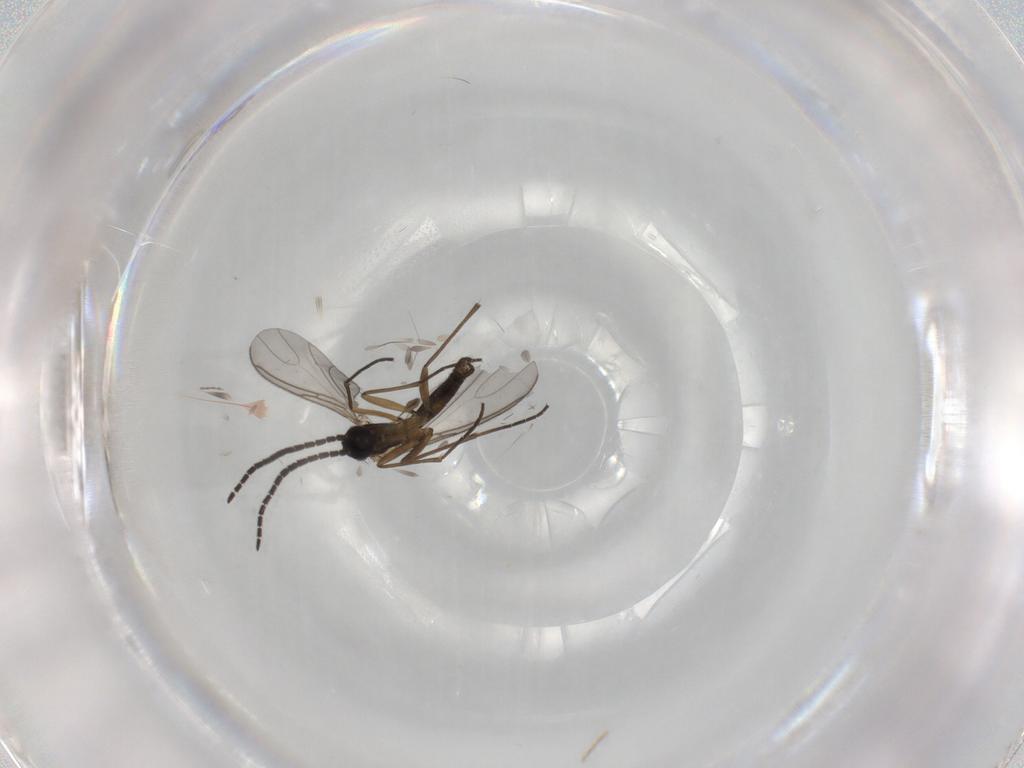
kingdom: Animalia
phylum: Arthropoda
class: Insecta
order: Diptera
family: Cecidomyiidae
